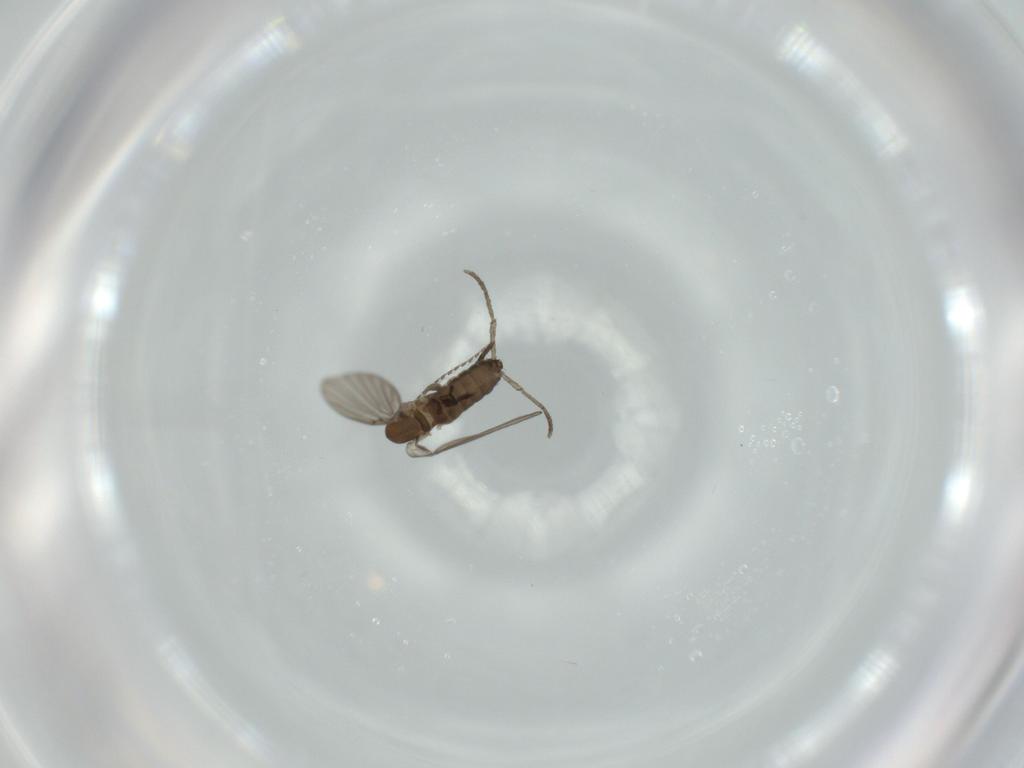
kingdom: Animalia
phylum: Arthropoda
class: Insecta
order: Diptera
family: Psychodidae
